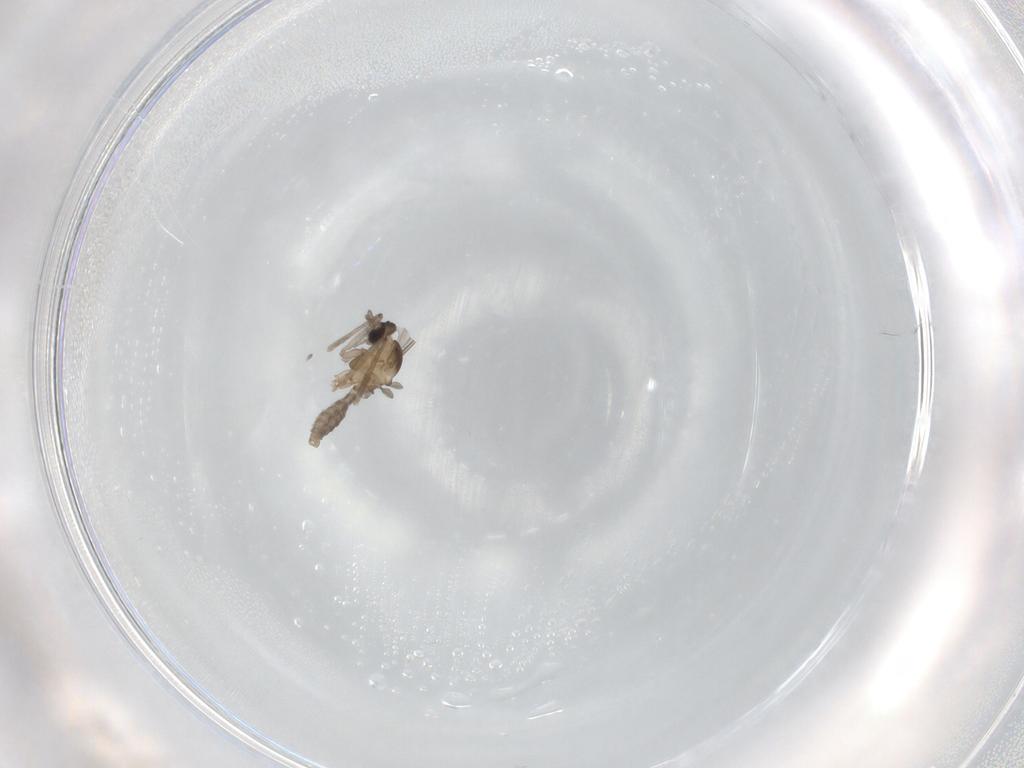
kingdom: Animalia
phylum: Arthropoda
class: Insecta
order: Diptera
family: Cecidomyiidae
